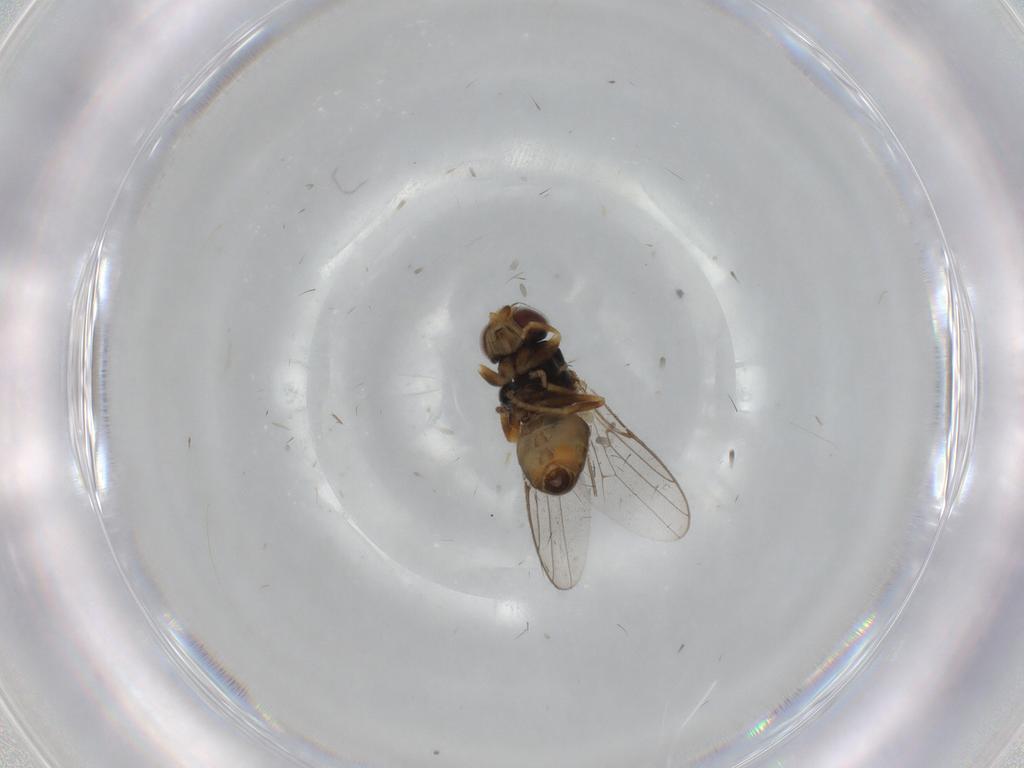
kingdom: Animalia
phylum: Arthropoda
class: Insecta
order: Diptera
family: Chloropidae
